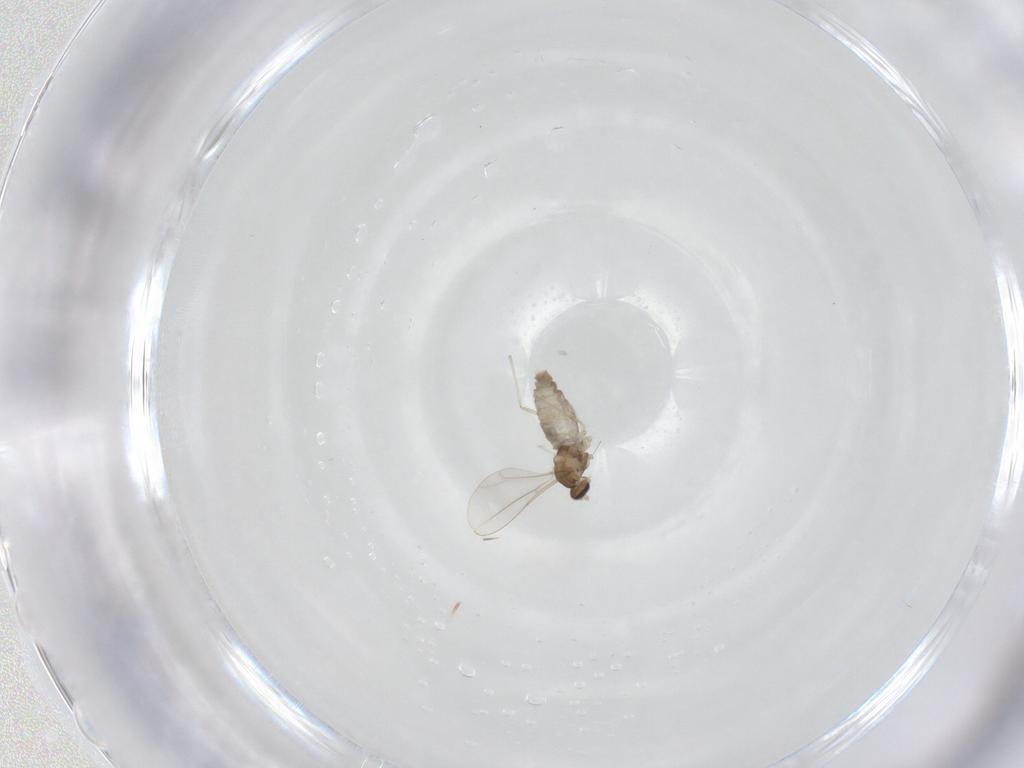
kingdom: Animalia
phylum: Arthropoda
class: Insecta
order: Diptera
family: Cecidomyiidae
